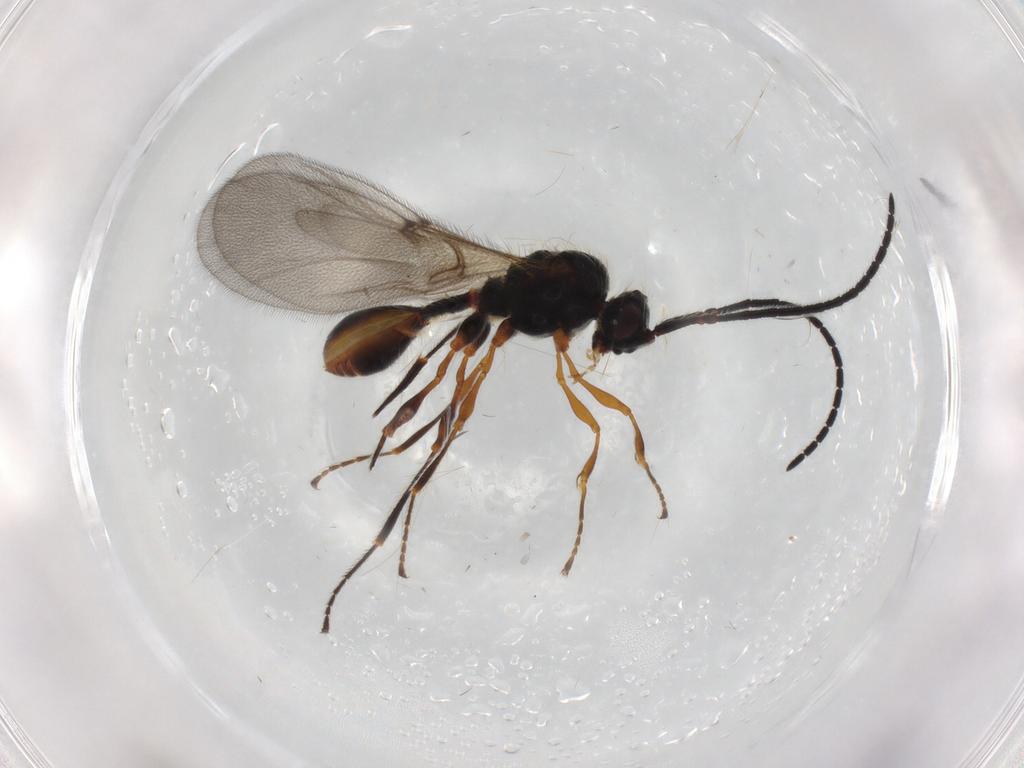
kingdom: Animalia
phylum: Arthropoda
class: Insecta
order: Hymenoptera
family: Diapriidae
